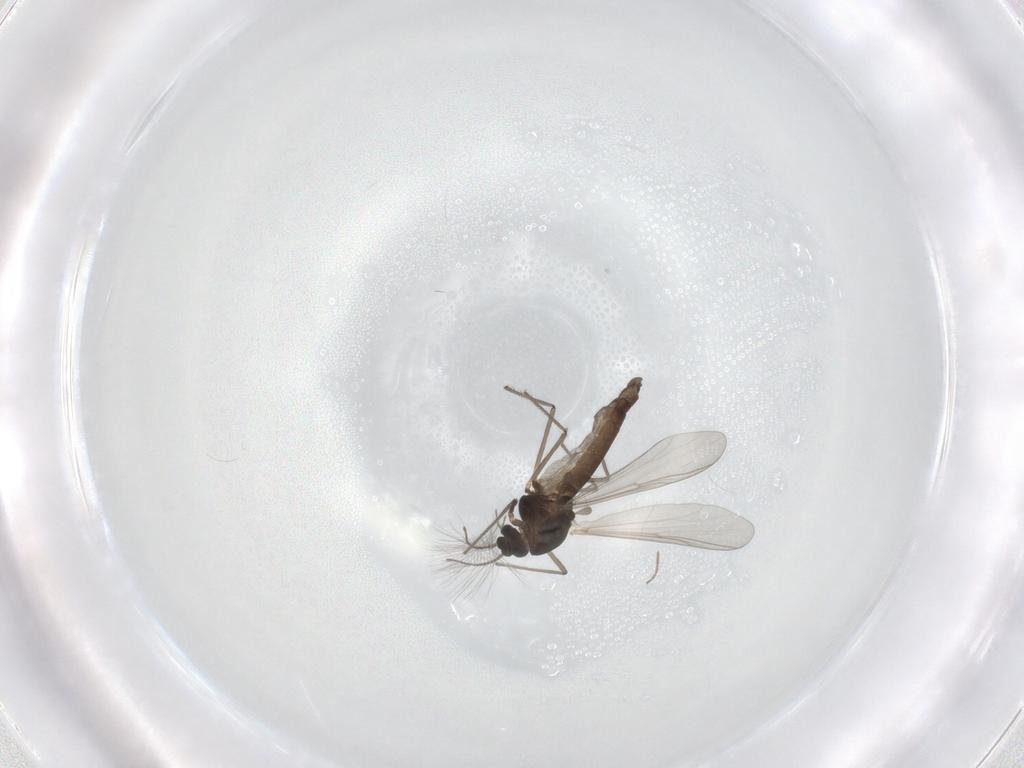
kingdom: Animalia
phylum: Arthropoda
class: Insecta
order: Diptera
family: Chironomidae
